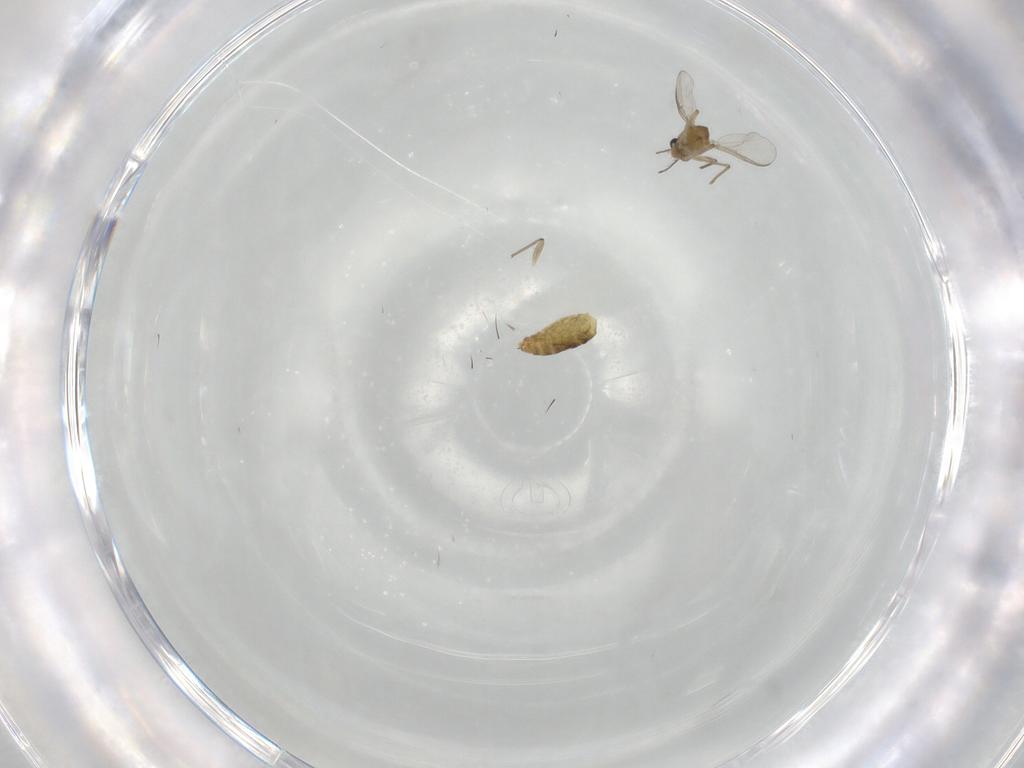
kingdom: Animalia
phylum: Arthropoda
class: Insecta
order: Diptera
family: Chironomidae
